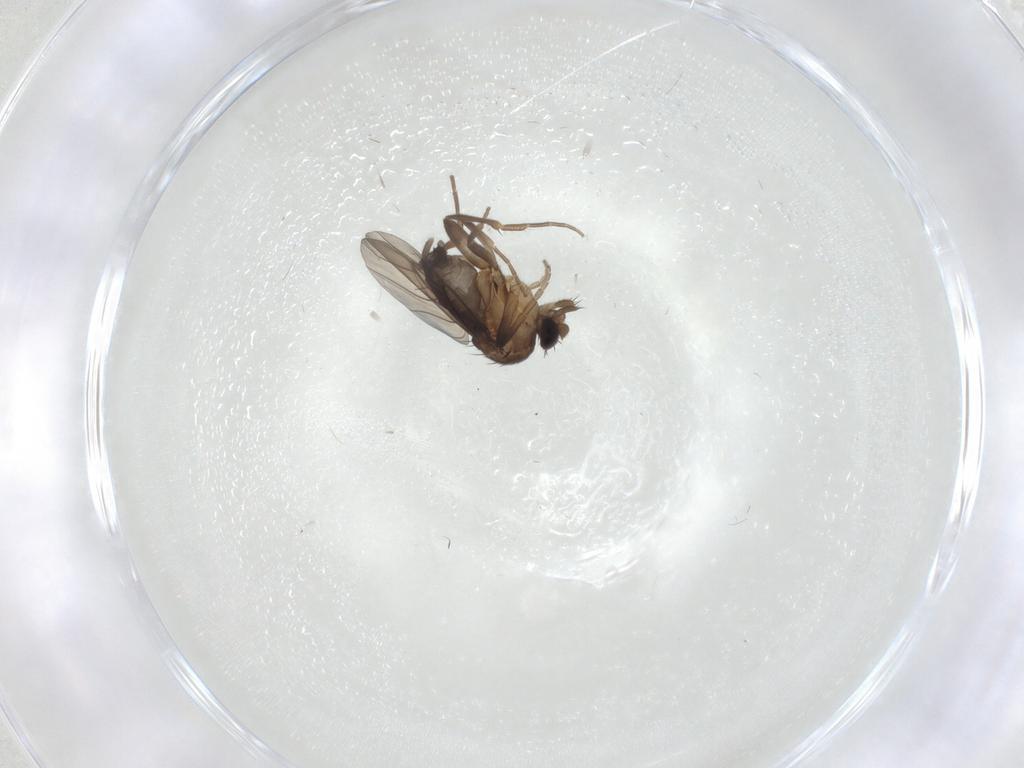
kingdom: Animalia
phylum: Arthropoda
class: Insecta
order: Diptera
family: Phoridae
